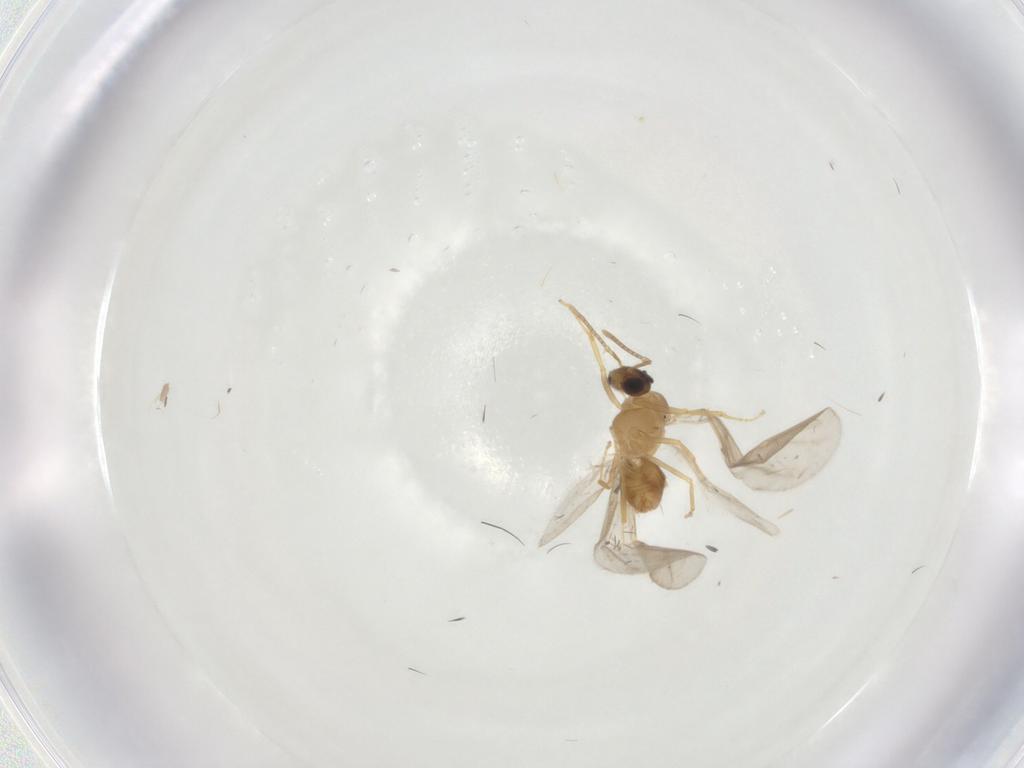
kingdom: Animalia
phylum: Arthropoda
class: Insecta
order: Hymenoptera
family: Formicidae
